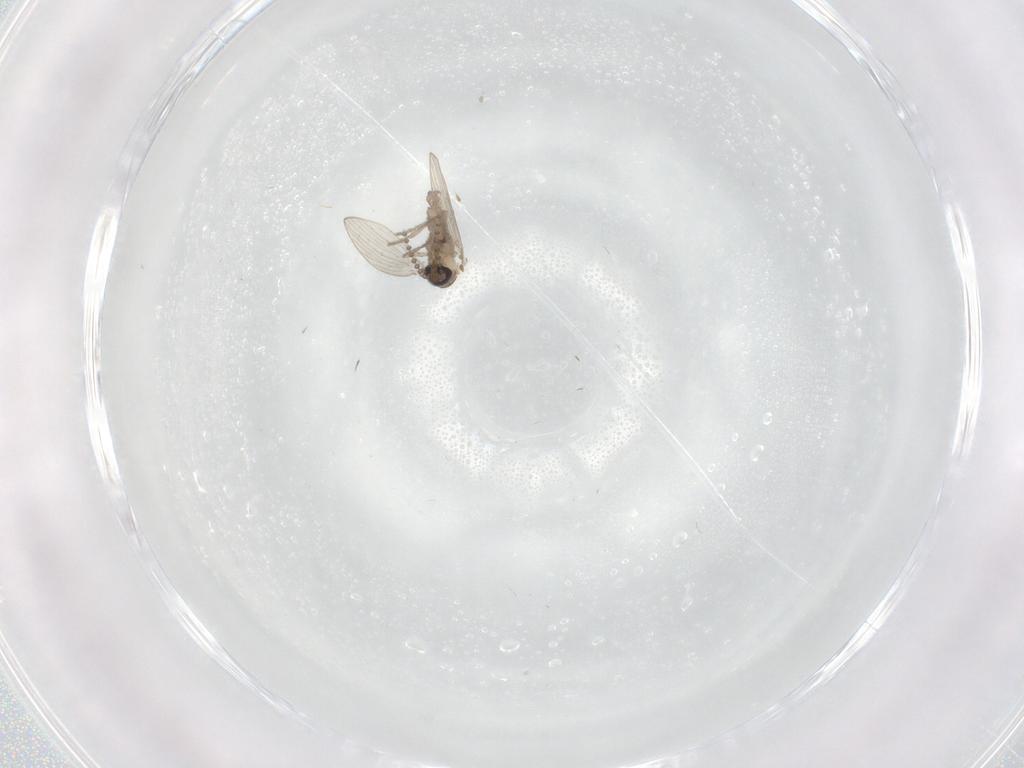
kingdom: Animalia
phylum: Arthropoda
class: Insecta
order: Diptera
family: Psychodidae
